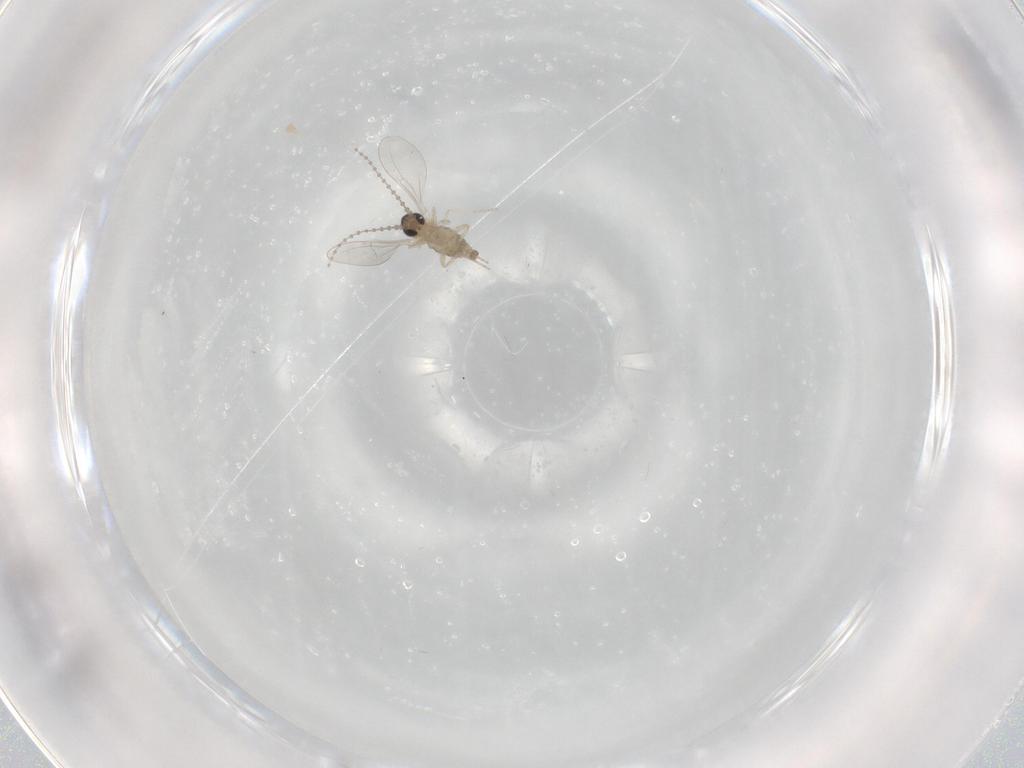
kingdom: Animalia
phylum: Arthropoda
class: Insecta
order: Diptera
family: Cecidomyiidae
